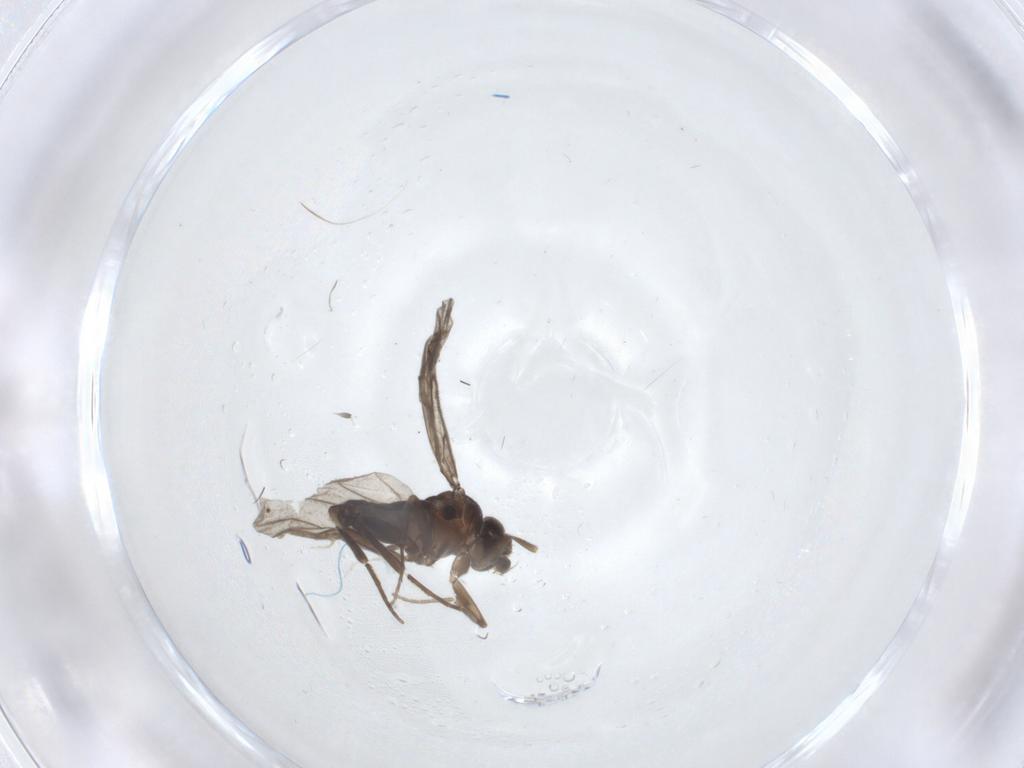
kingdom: Animalia
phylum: Arthropoda
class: Insecta
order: Diptera
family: Cecidomyiidae
